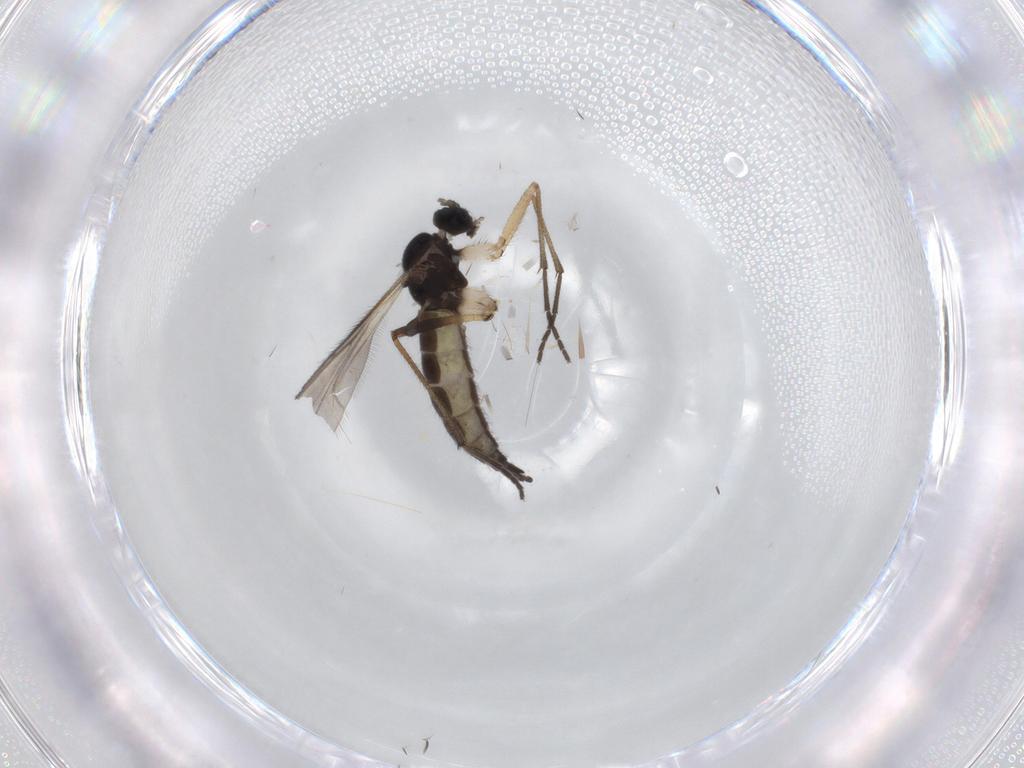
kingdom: Animalia
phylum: Arthropoda
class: Insecta
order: Diptera
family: Sciaridae
